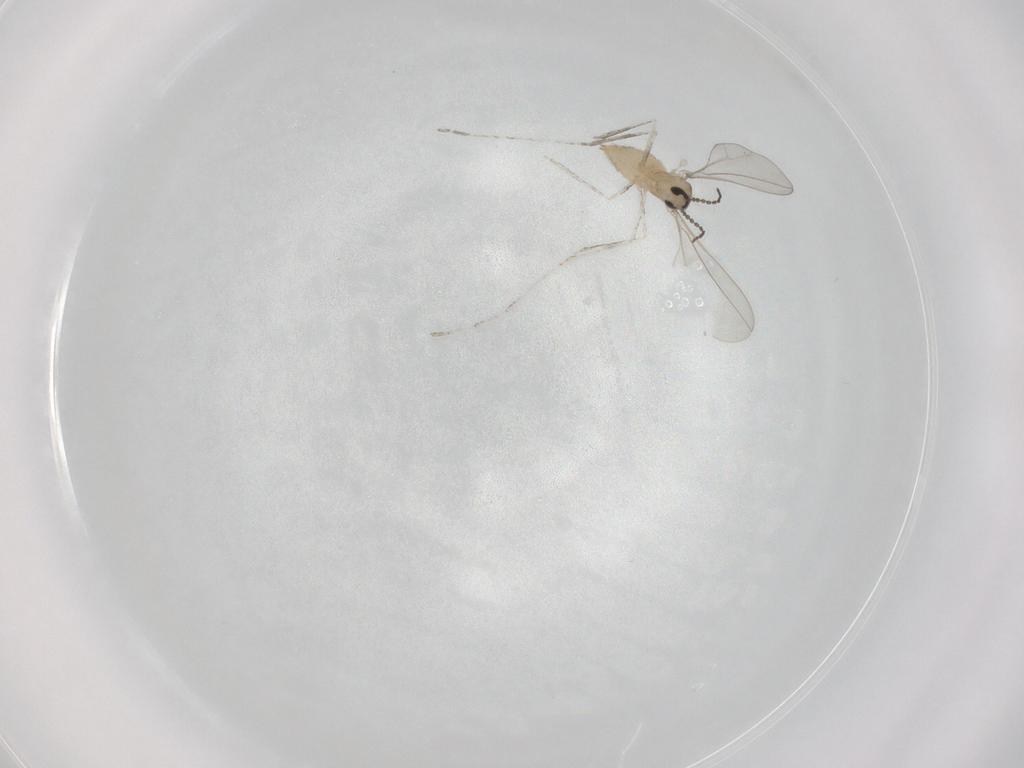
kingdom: Animalia
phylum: Arthropoda
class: Insecta
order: Diptera
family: Cecidomyiidae
